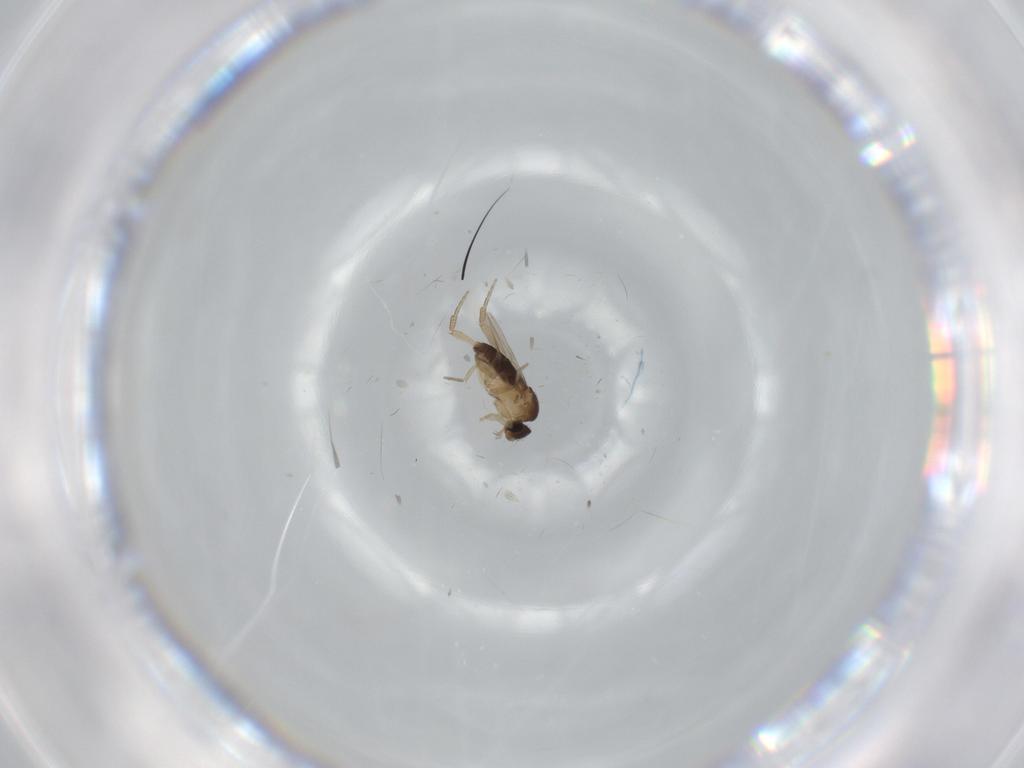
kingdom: Animalia
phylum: Arthropoda
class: Insecta
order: Diptera
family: Phoridae
